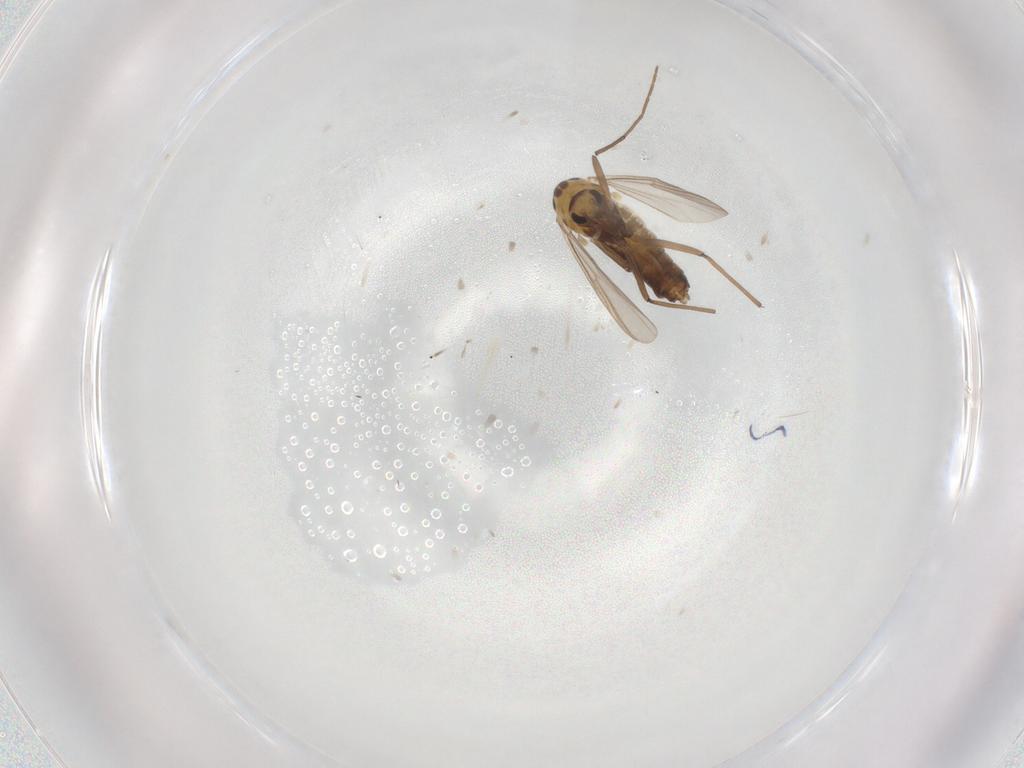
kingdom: Animalia
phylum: Arthropoda
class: Insecta
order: Diptera
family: Chironomidae
